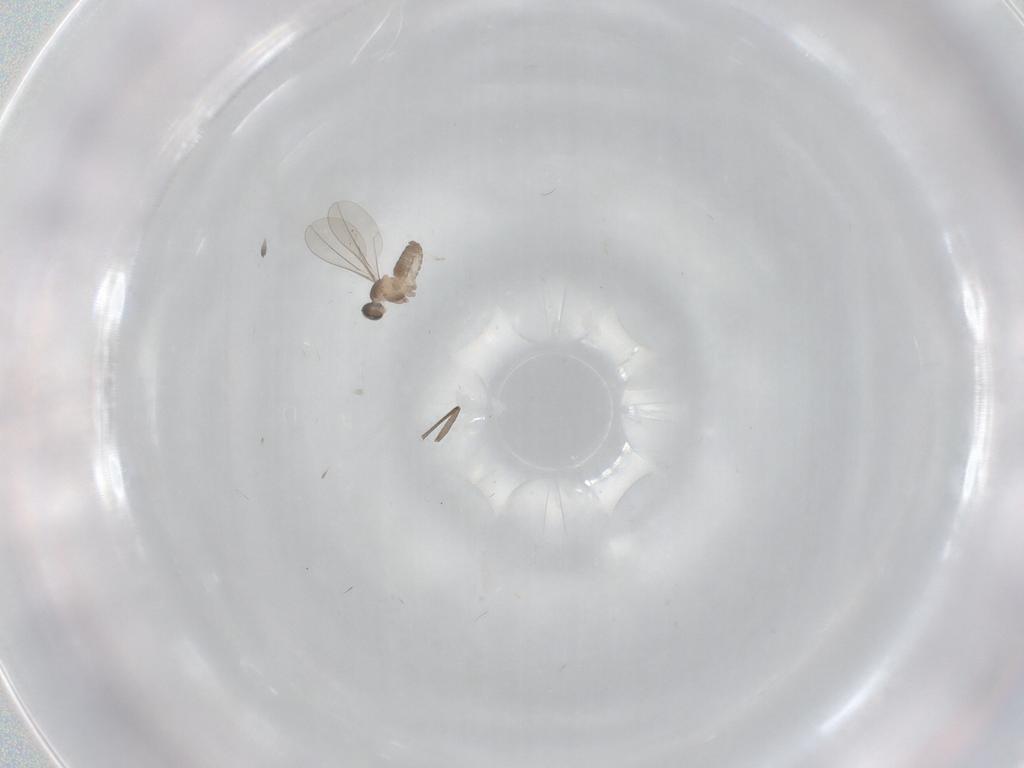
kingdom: Animalia
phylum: Arthropoda
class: Insecta
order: Diptera
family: Cecidomyiidae
